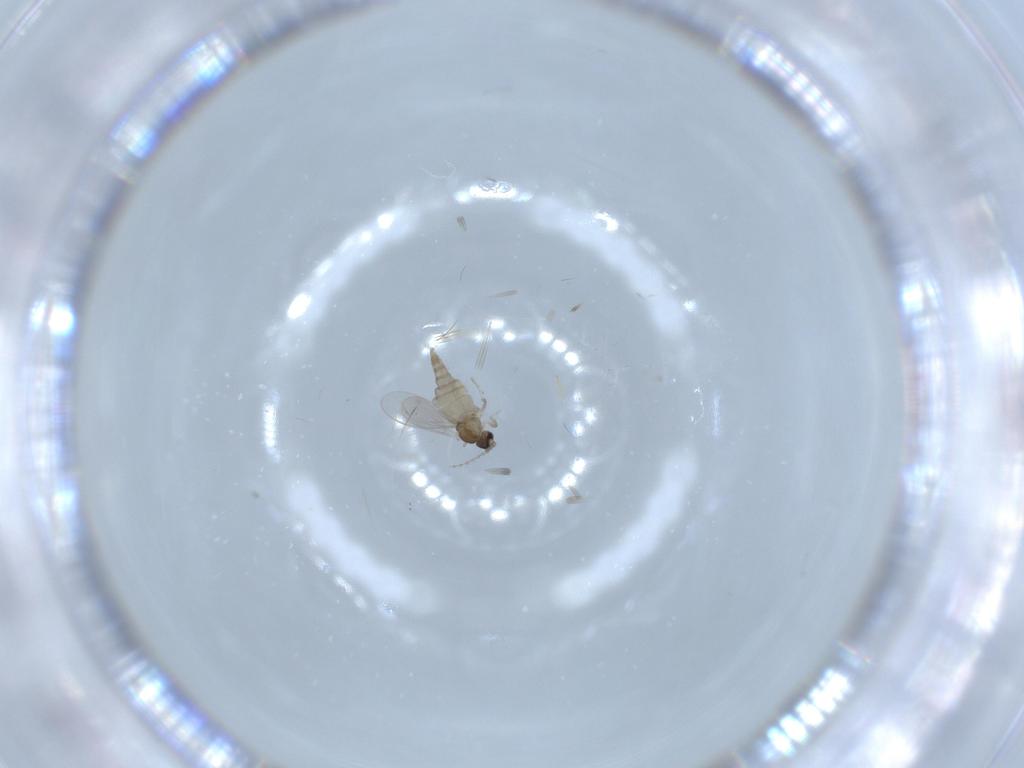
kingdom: Animalia
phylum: Arthropoda
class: Insecta
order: Diptera
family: Cecidomyiidae
